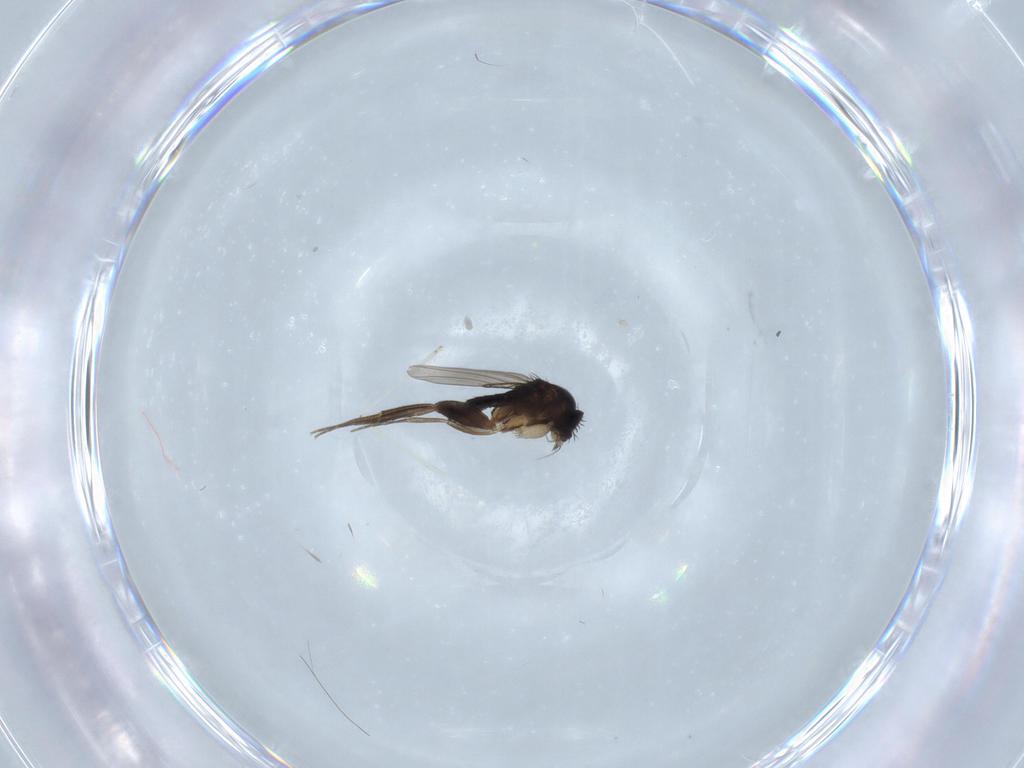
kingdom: Animalia
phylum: Arthropoda
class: Insecta
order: Diptera
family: Phoridae
